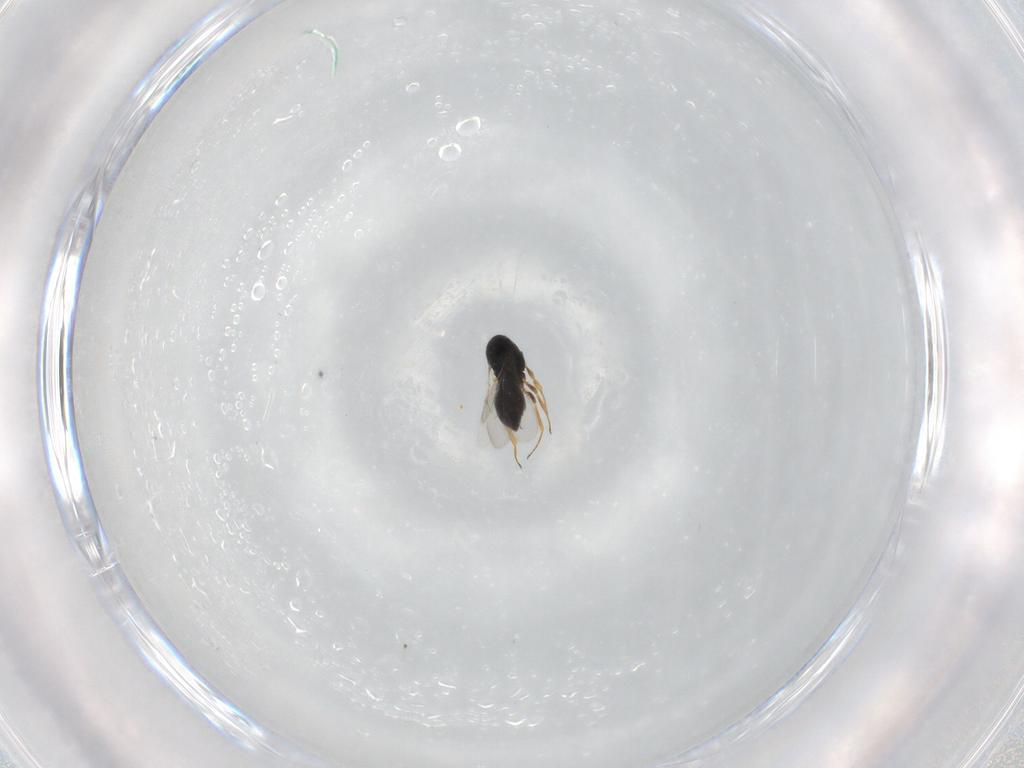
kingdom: Animalia
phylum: Arthropoda
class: Insecta
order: Hymenoptera
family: Scelionidae
